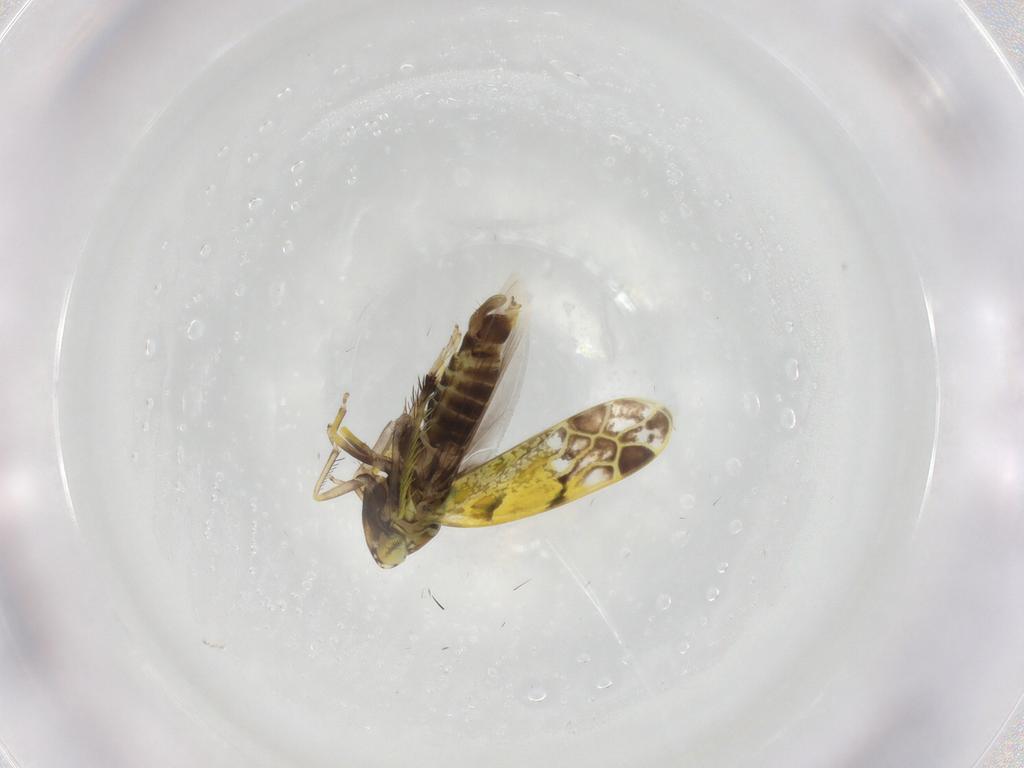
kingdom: Animalia
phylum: Arthropoda
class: Insecta
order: Hemiptera
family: Cicadellidae
